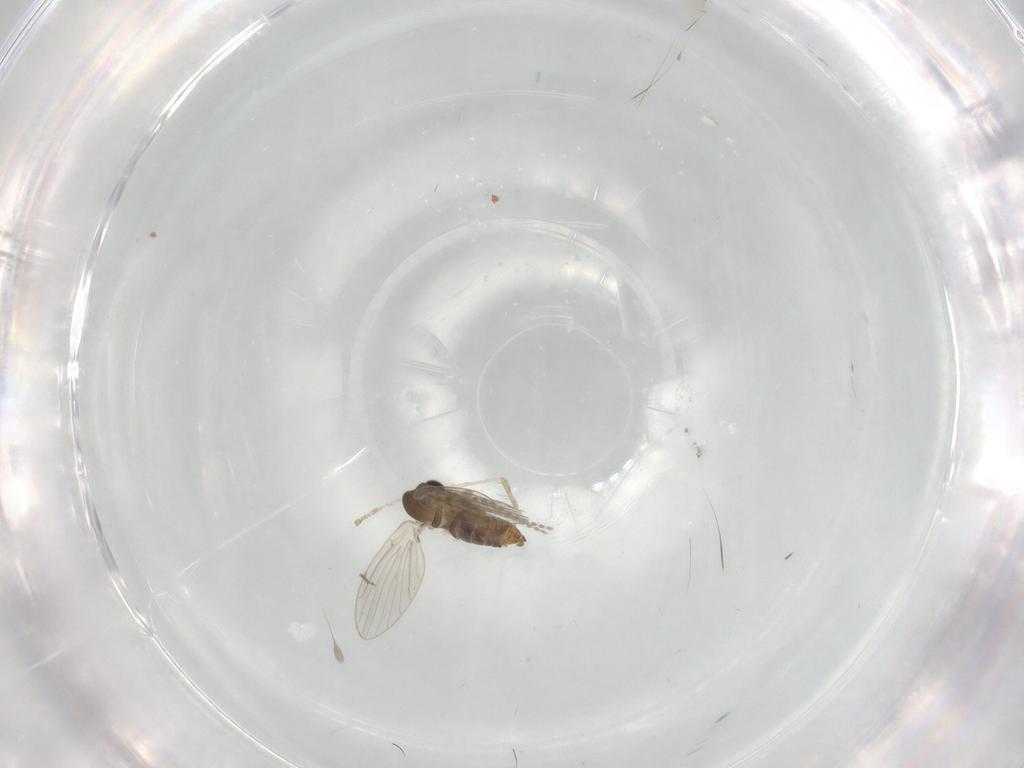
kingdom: Animalia
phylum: Arthropoda
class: Insecta
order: Diptera
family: Cecidomyiidae
